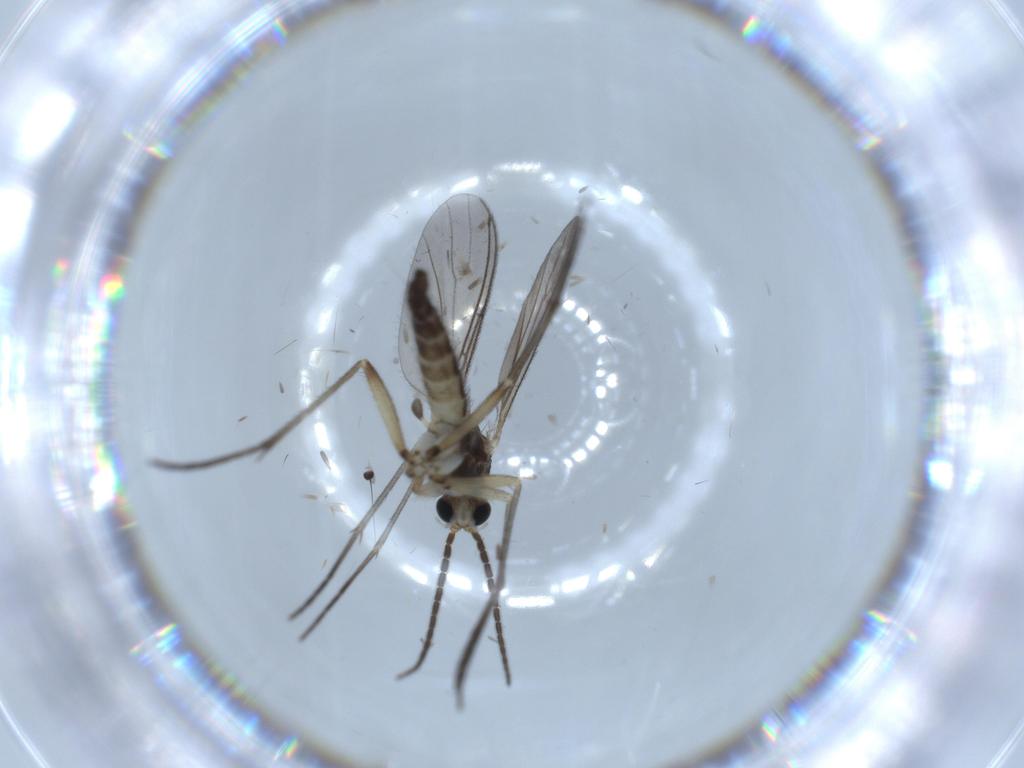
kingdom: Animalia
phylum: Arthropoda
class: Insecta
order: Diptera
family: Sciaridae
